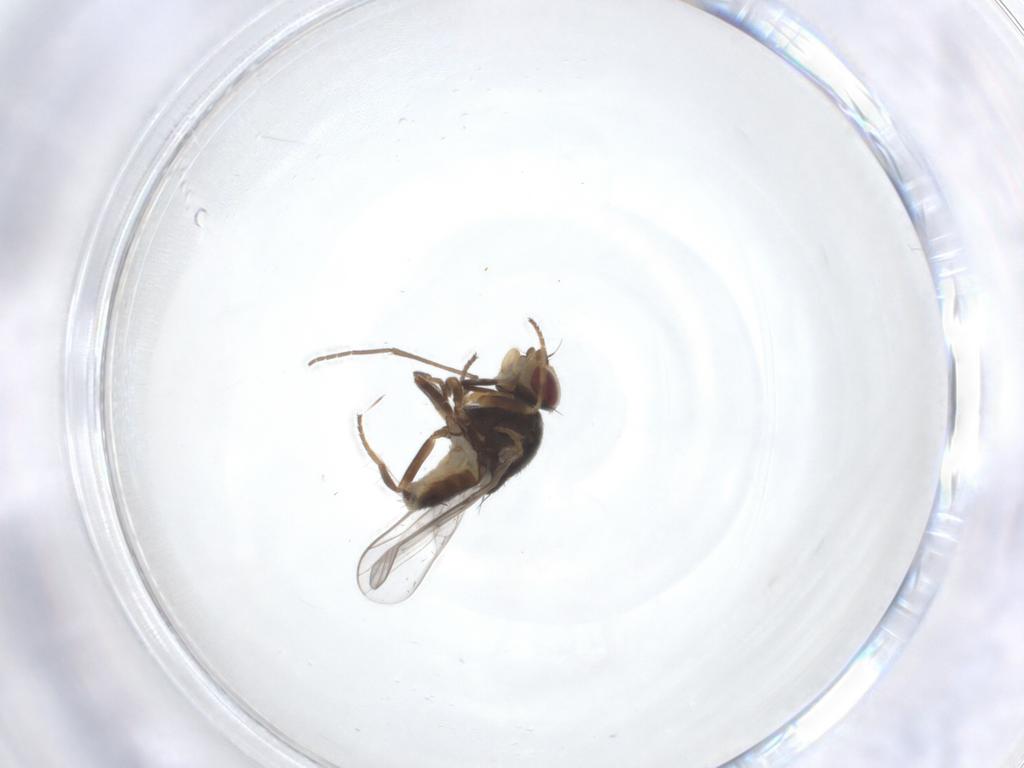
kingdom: Animalia
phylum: Arthropoda
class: Insecta
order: Diptera
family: Chloropidae
